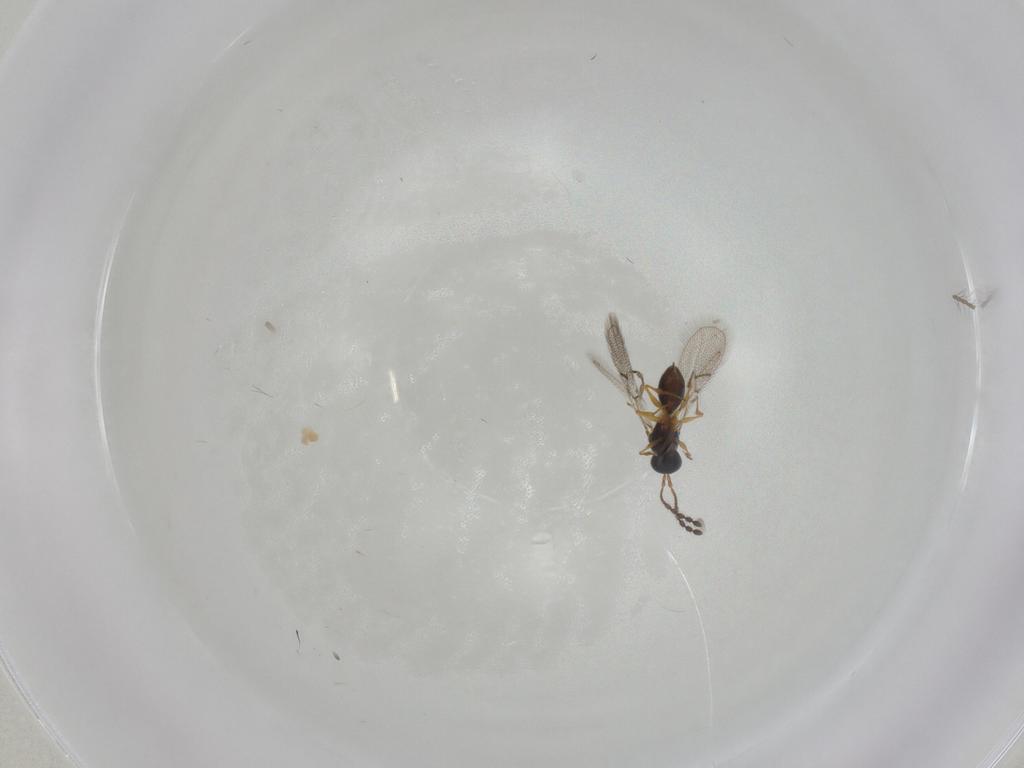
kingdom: Animalia
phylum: Arthropoda
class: Insecta
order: Hymenoptera
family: Figitidae
